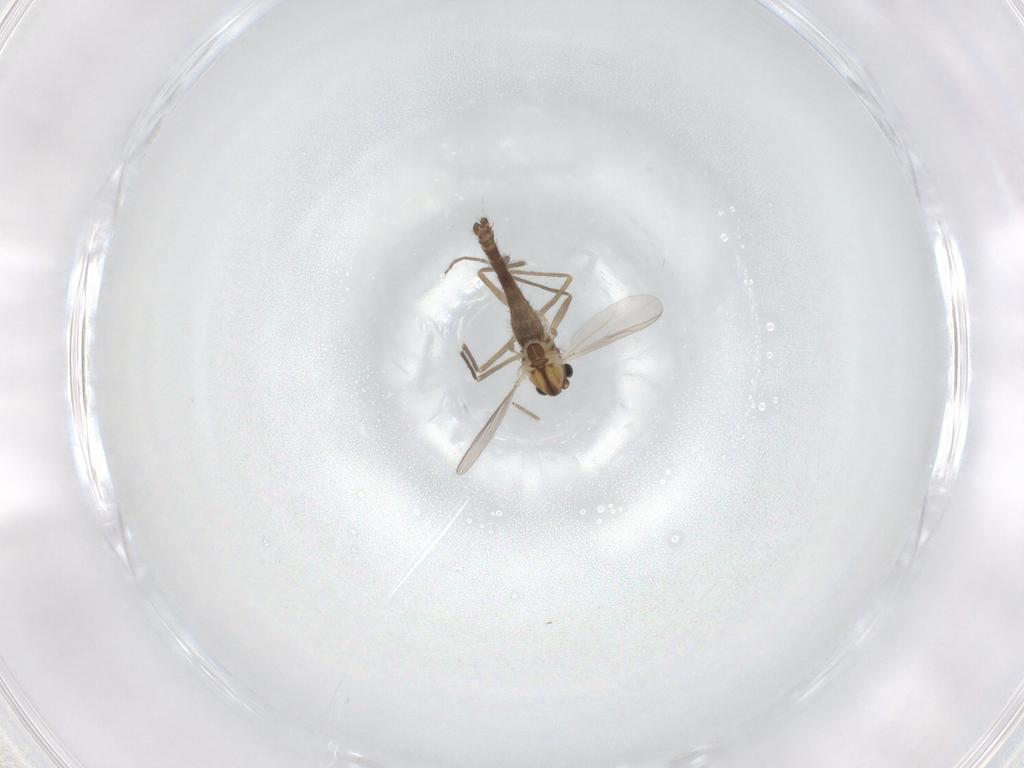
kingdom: Animalia
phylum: Arthropoda
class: Insecta
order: Diptera
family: Chironomidae
